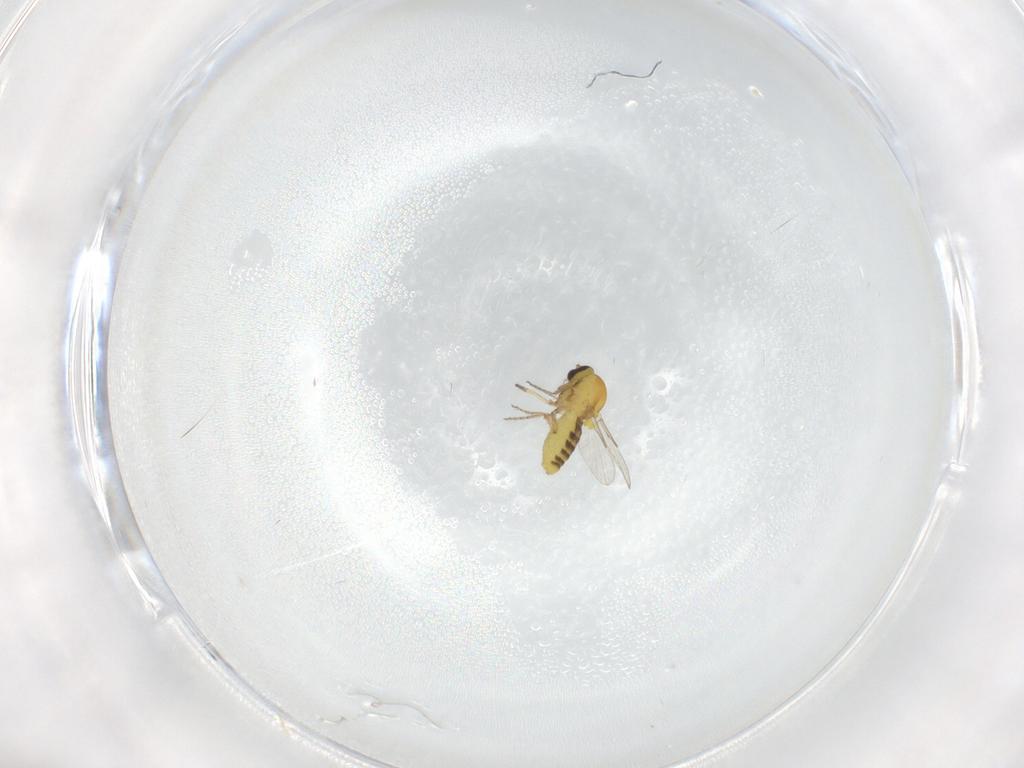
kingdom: Animalia
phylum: Arthropoda
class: Insecta
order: Diptera
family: Ceratopogonidae
